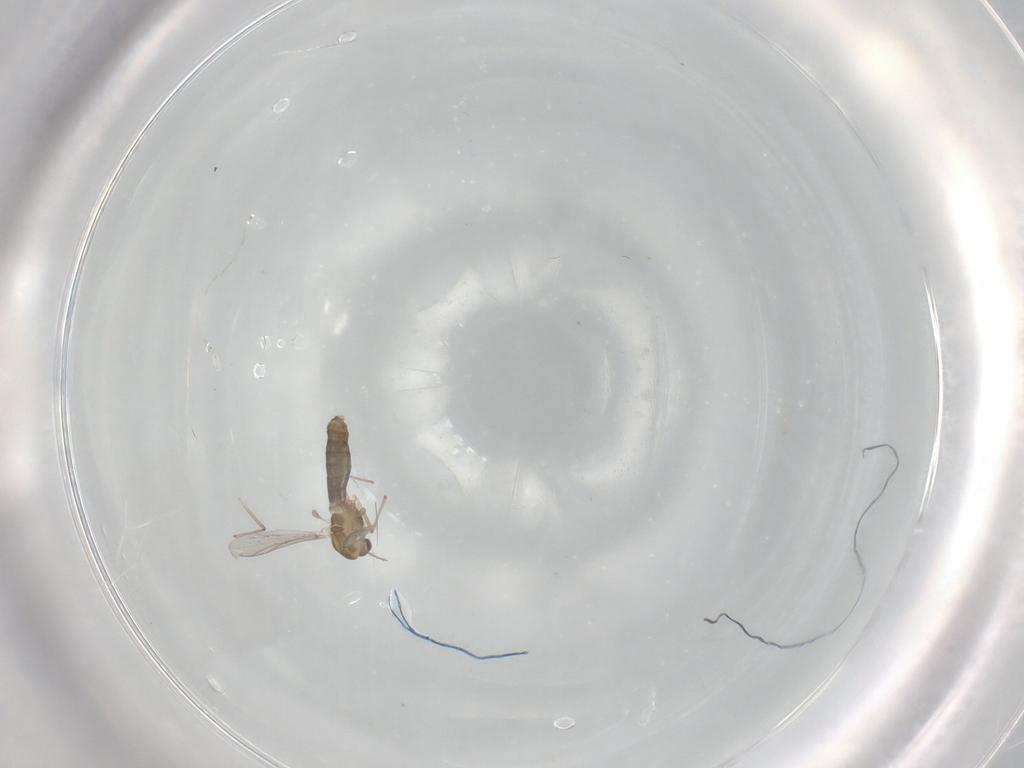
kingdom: Animalia
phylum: Arthropoda
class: Insecta
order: Diptera
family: Chironomidae
